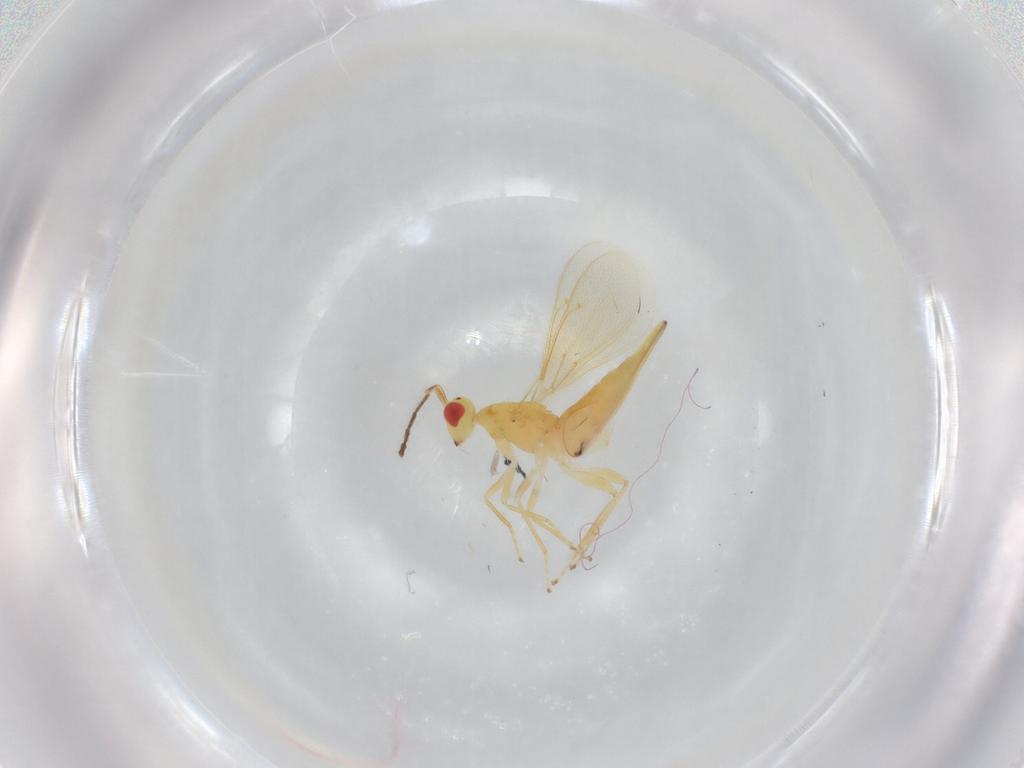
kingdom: Animalia
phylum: Arthropoda
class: Insecta
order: Hymenoptera
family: Eulophidae
